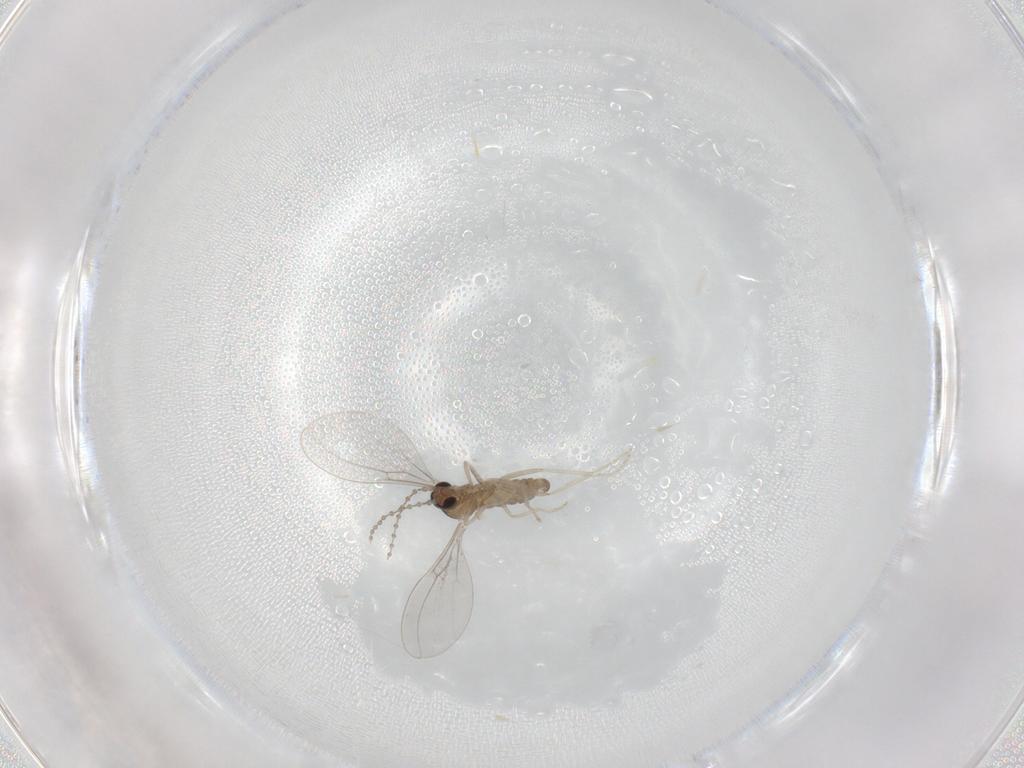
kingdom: Animalia
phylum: Arthropoda
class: Insecta
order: Diptera
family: Cecidomyiidae
